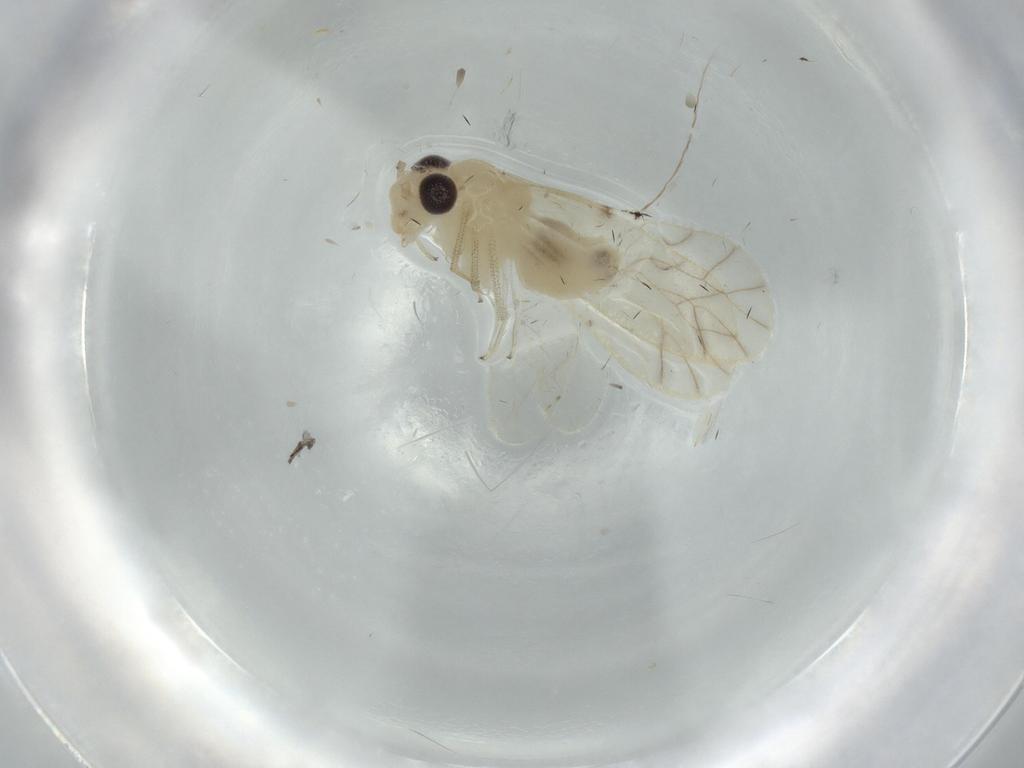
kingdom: Animalia
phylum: Arthropoda
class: Insecta
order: Psocodea
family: Caeciliusidae
